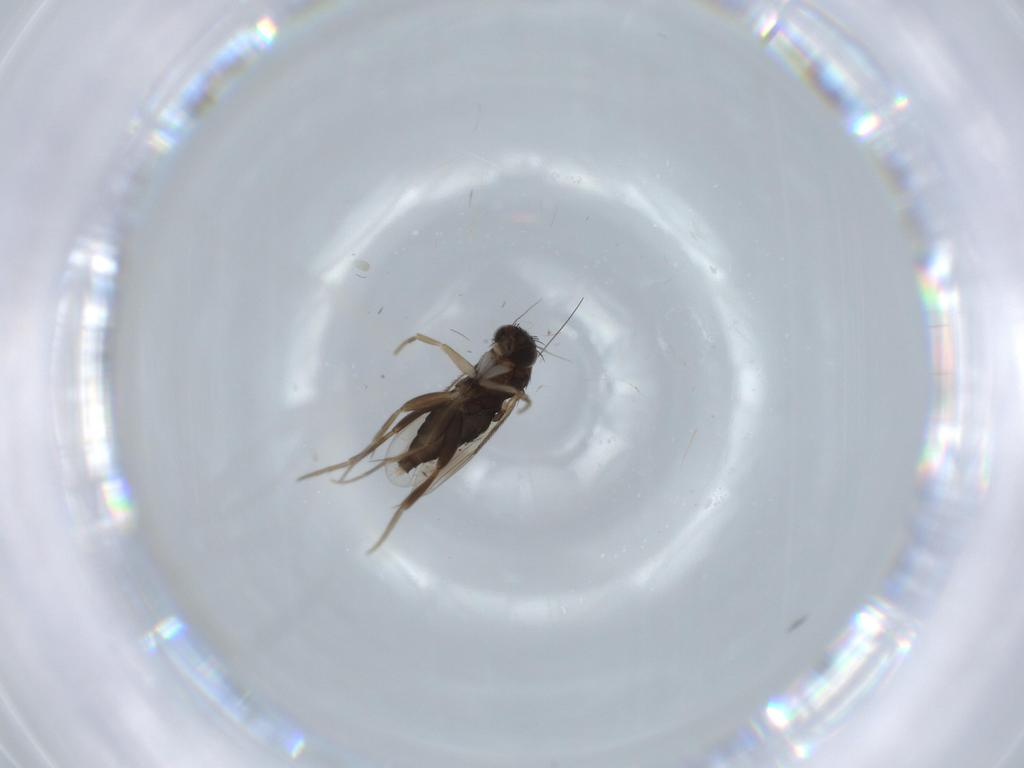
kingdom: Animalia
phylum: Arthropoda
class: Insecta
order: Diptera
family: Phoridae
